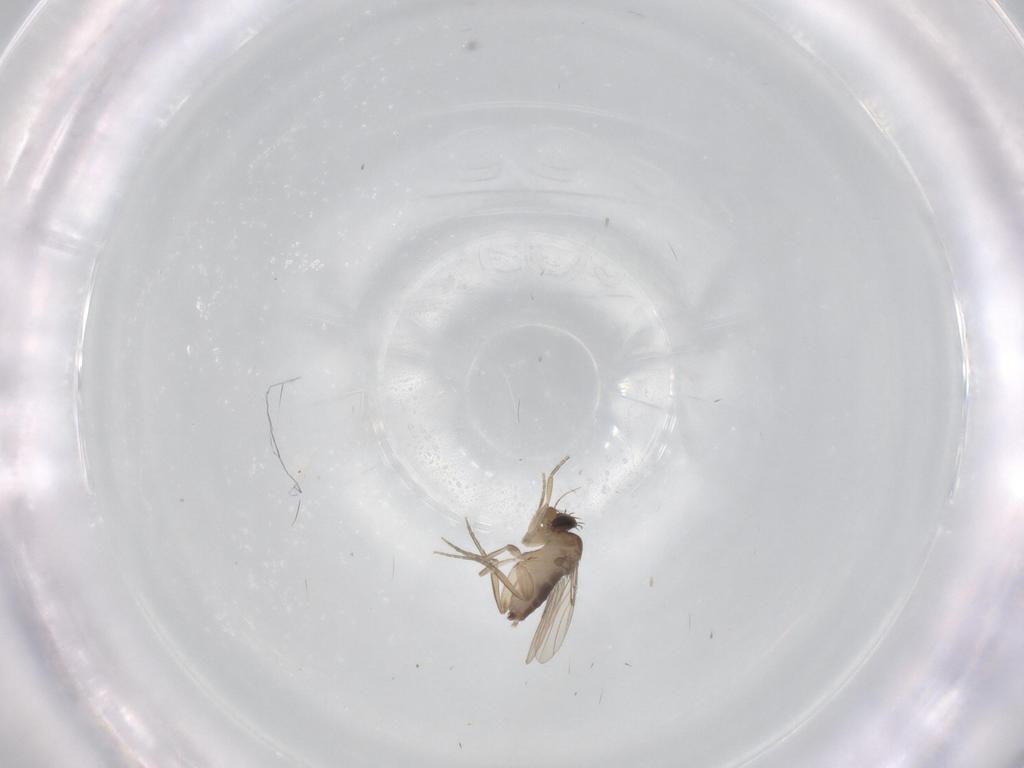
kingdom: Animalia
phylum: Arthropoda
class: Insecta
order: Diptera
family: Phoridae
